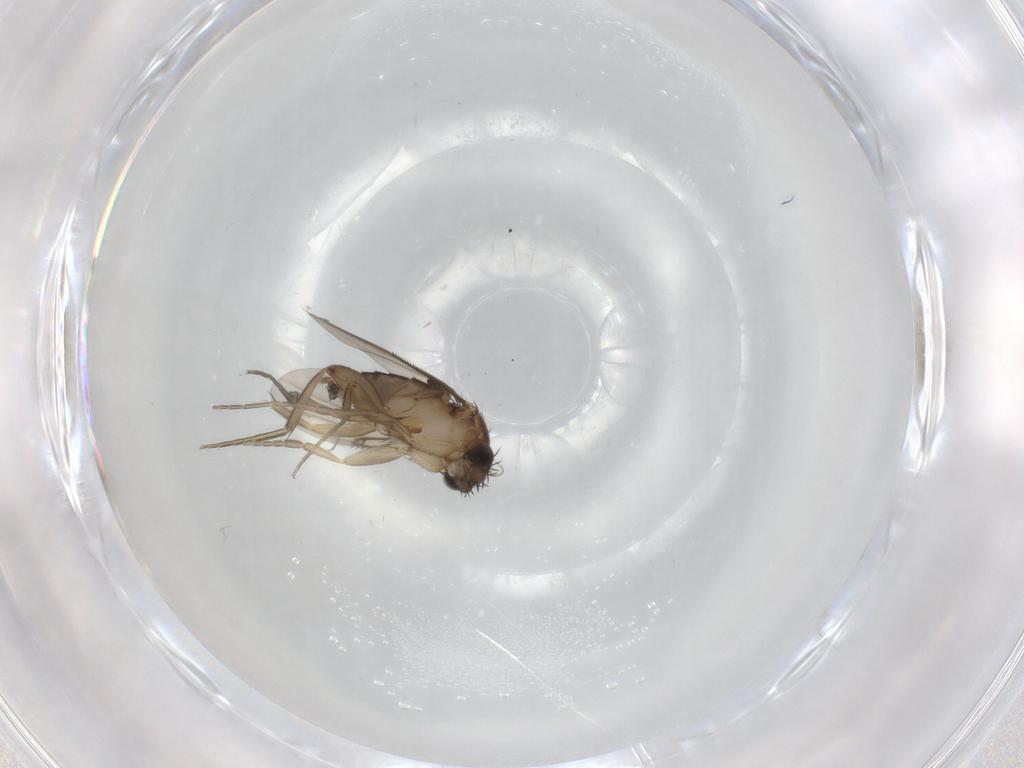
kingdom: Animalia
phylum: Arthropoda
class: Insecta
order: Diptera
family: Phoridae
